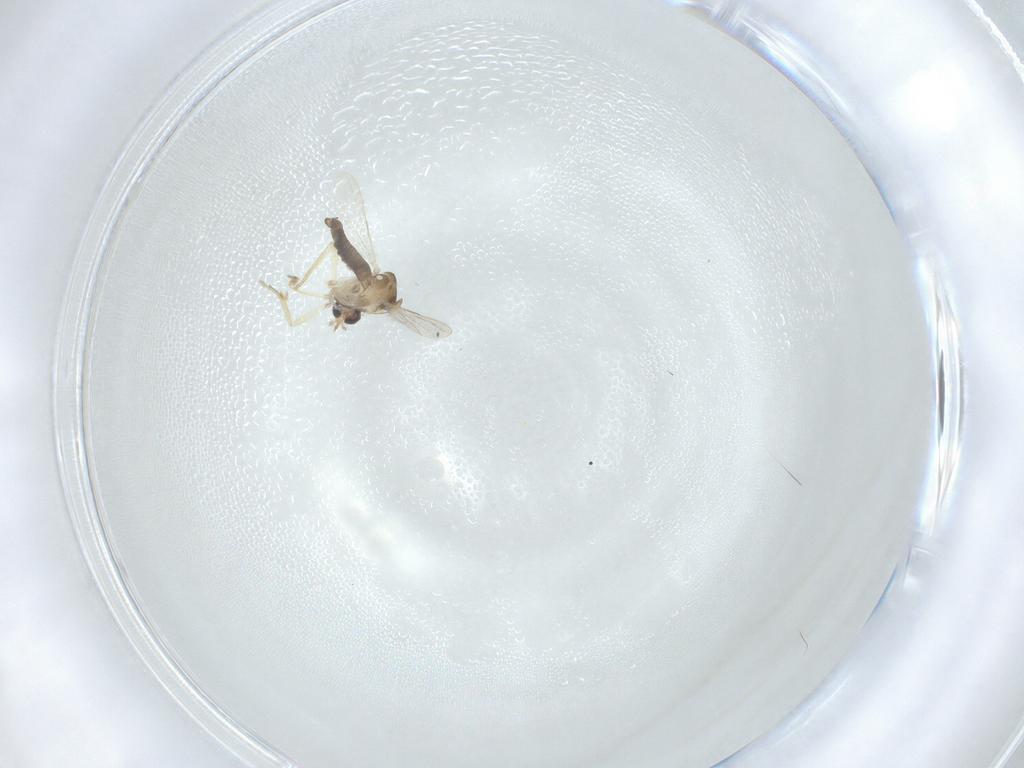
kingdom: Animalia
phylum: Arthropoda
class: Insecta
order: Diptera
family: Ceratopogonidae
